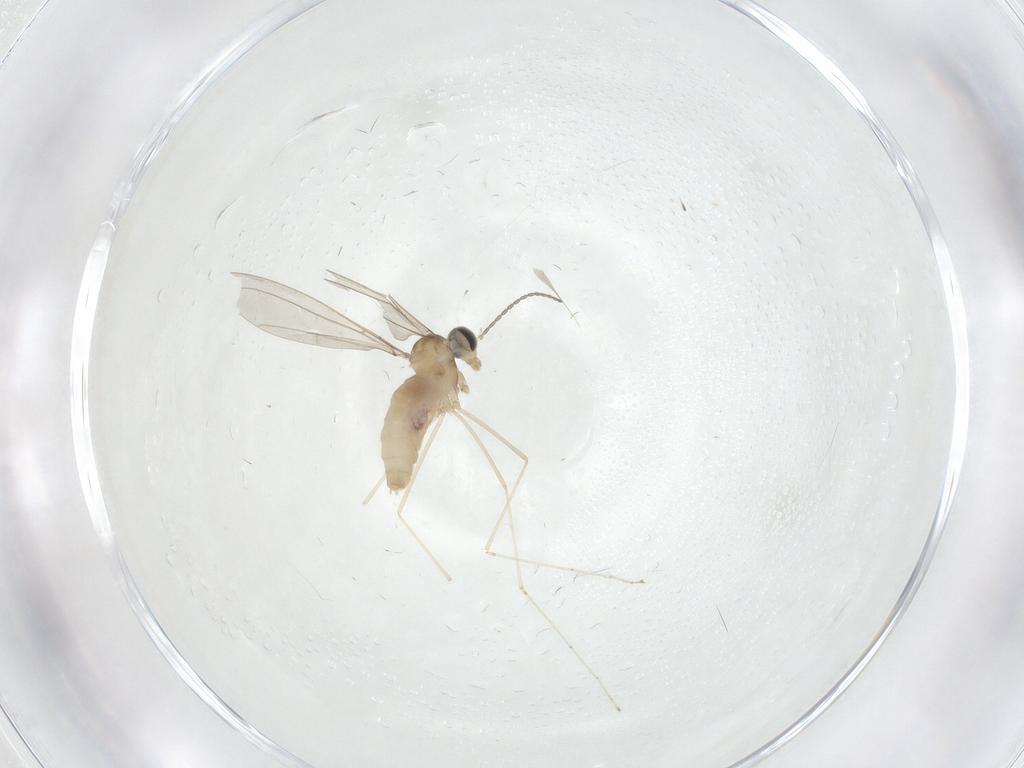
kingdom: Animalia
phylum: Arthropoda
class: Insecta
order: Diptera
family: Cecidomyiidae
